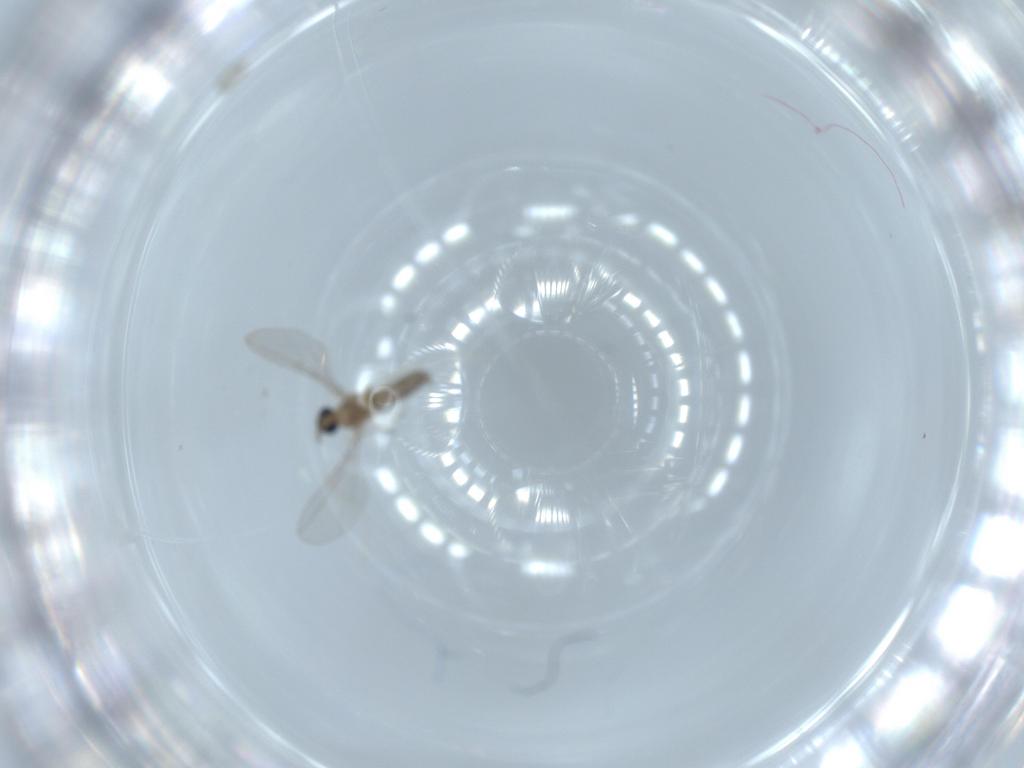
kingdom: Animalia
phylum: Arthropoda
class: Insecta
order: Diptera
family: Cecidomyiidae
